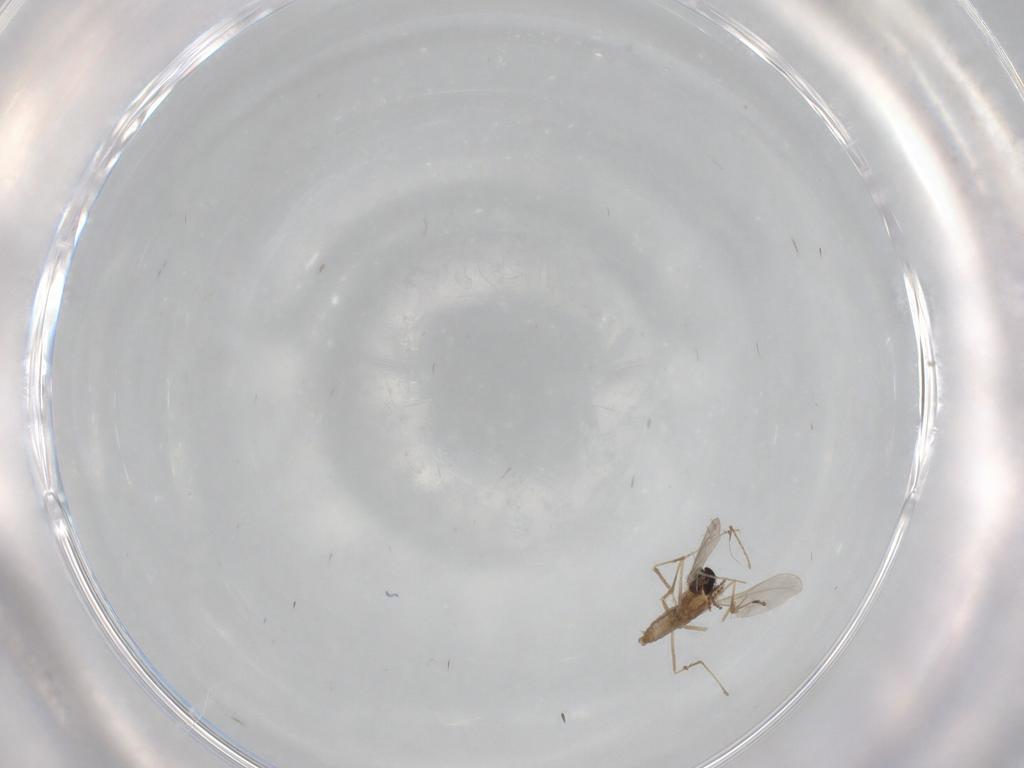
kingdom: Animalia
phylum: Arthropoda
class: Insecta
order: Diptera
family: Cecidomyiidae
